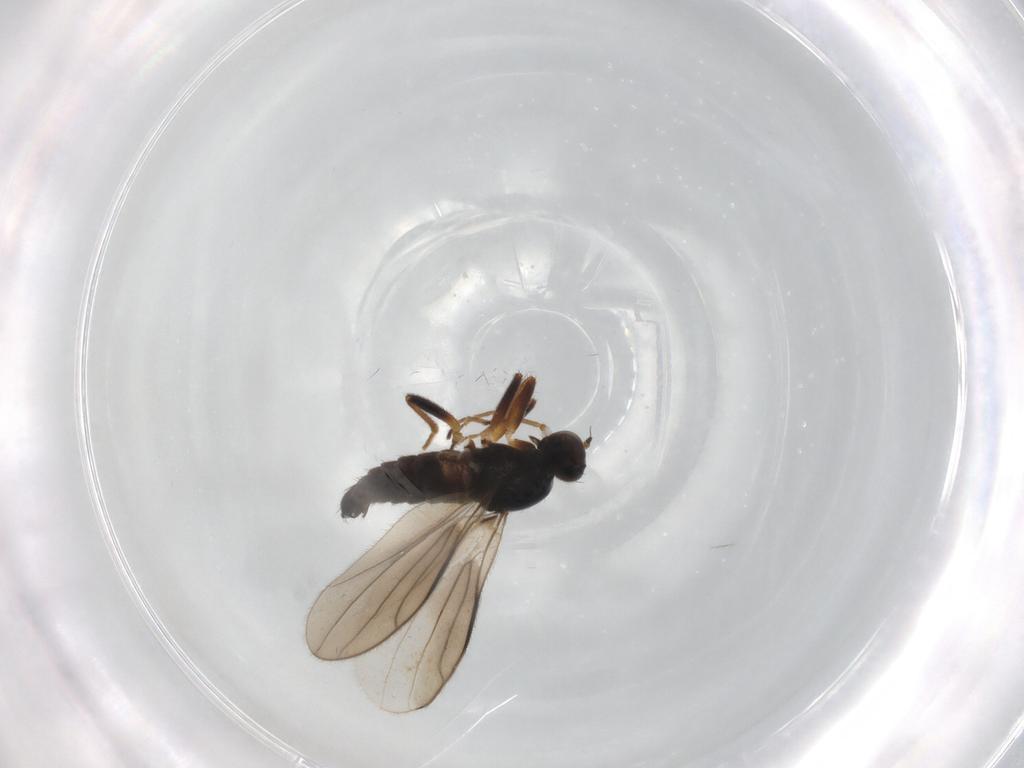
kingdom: Animalia
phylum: Arthropoda
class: Insecta
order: Diptera
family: Hybotidae
